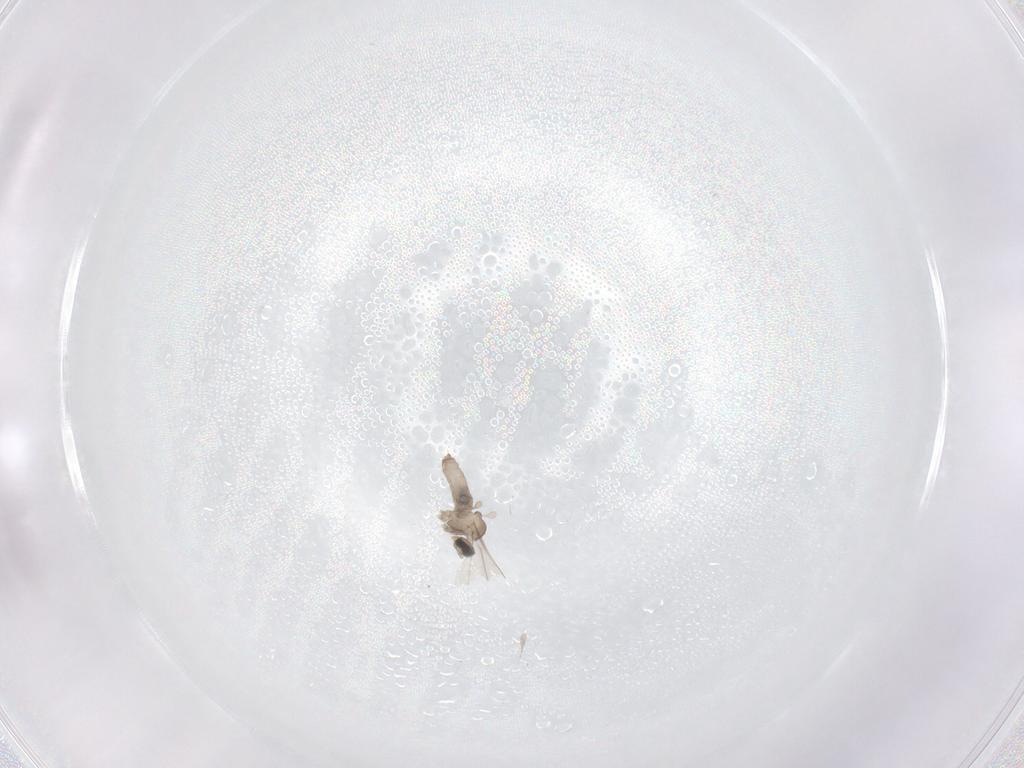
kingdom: Animalia
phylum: Arthropoda
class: Insecta
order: Diptera
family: Cecidomyiidae
